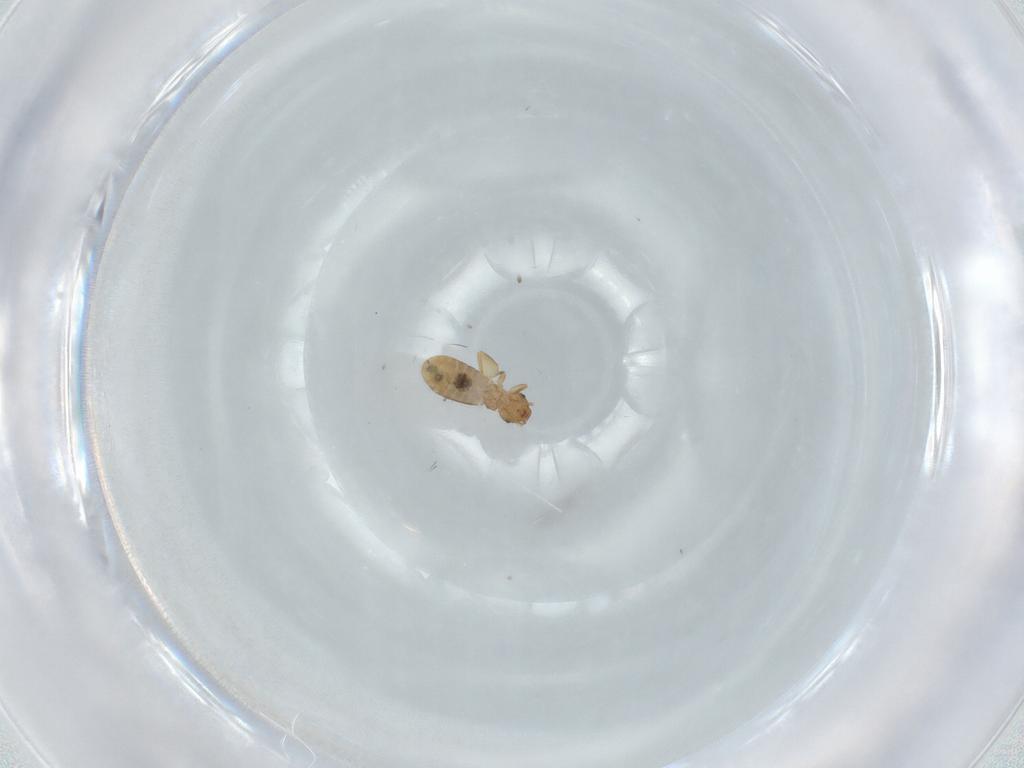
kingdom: Animalia
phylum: Arthropoda
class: Insecta
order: Psocodea
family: Liposcelididae
